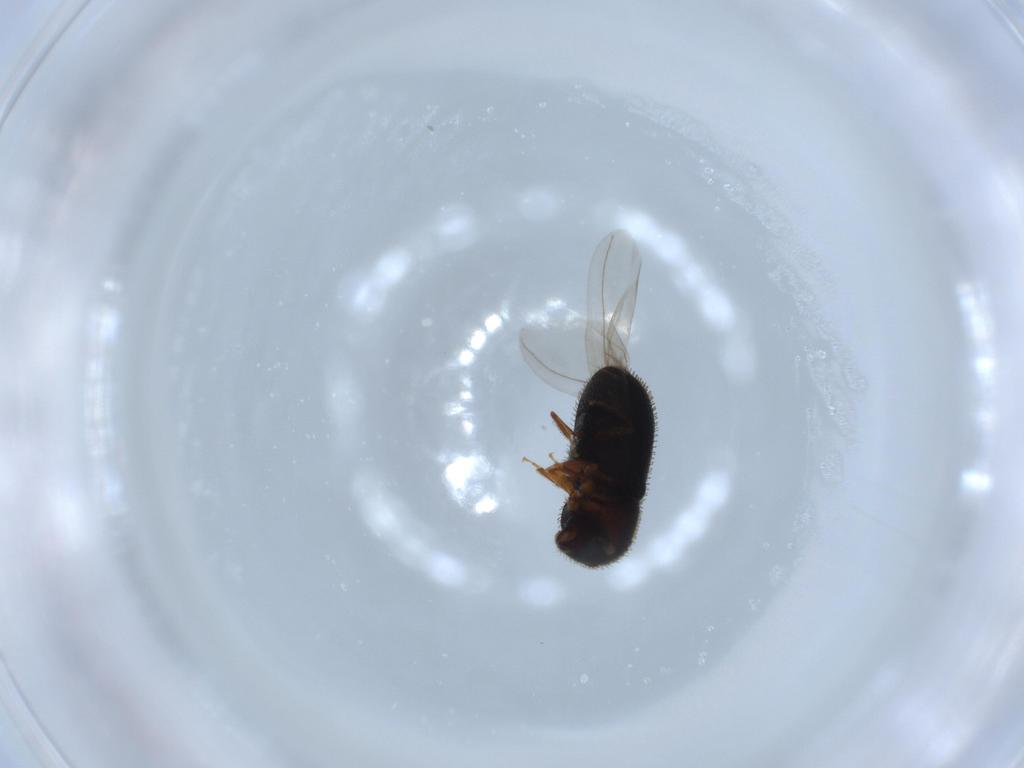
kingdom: Animalia
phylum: Arthropoda
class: Insecta
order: Coleoptera
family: Curculionidae
